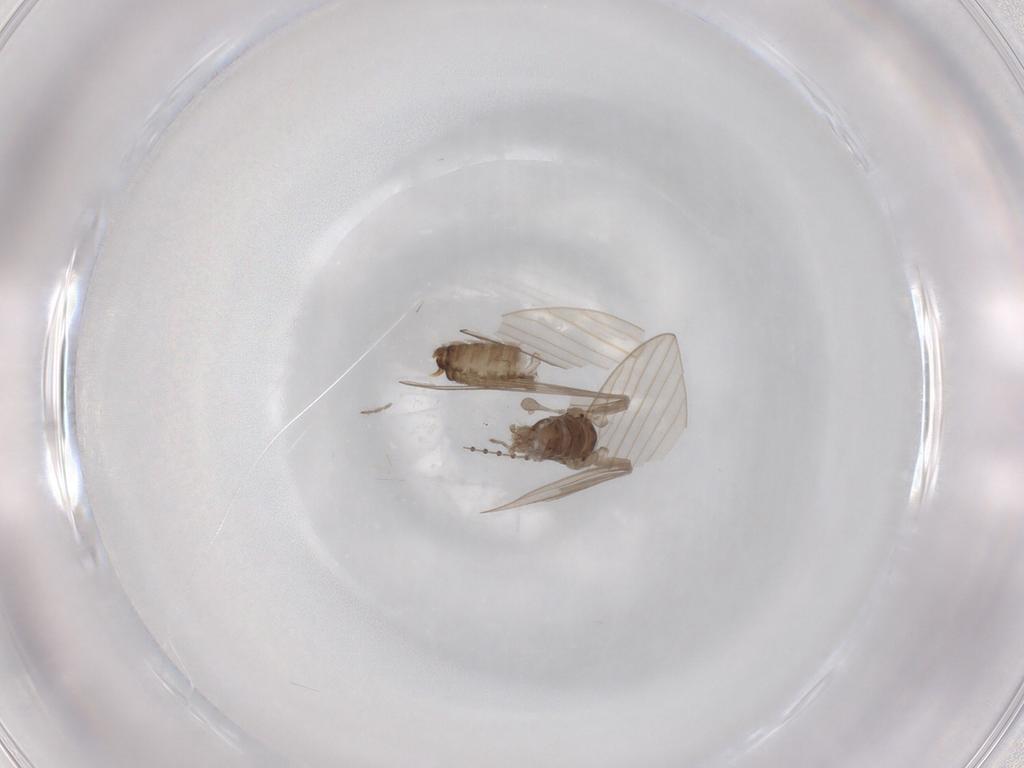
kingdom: Animalia
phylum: Arthropoda
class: Insecta
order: Diptera
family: Psychodidae
